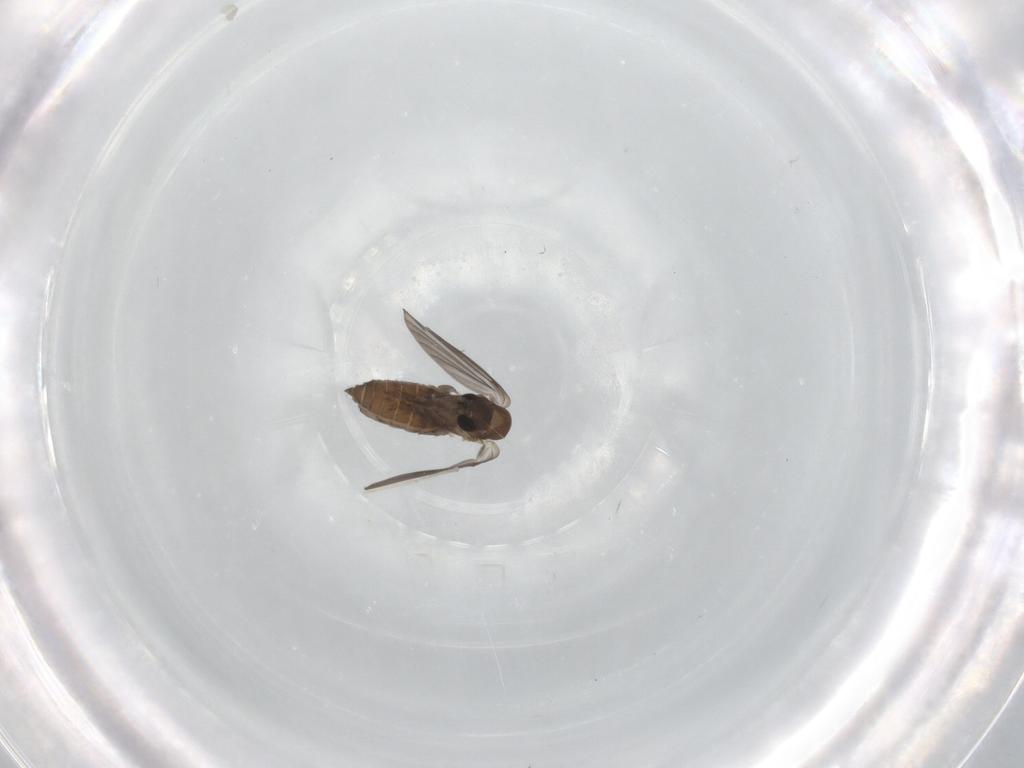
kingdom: Animalia
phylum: Arthropoda
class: Insecta
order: Diptera
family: Cecidomyiidae
